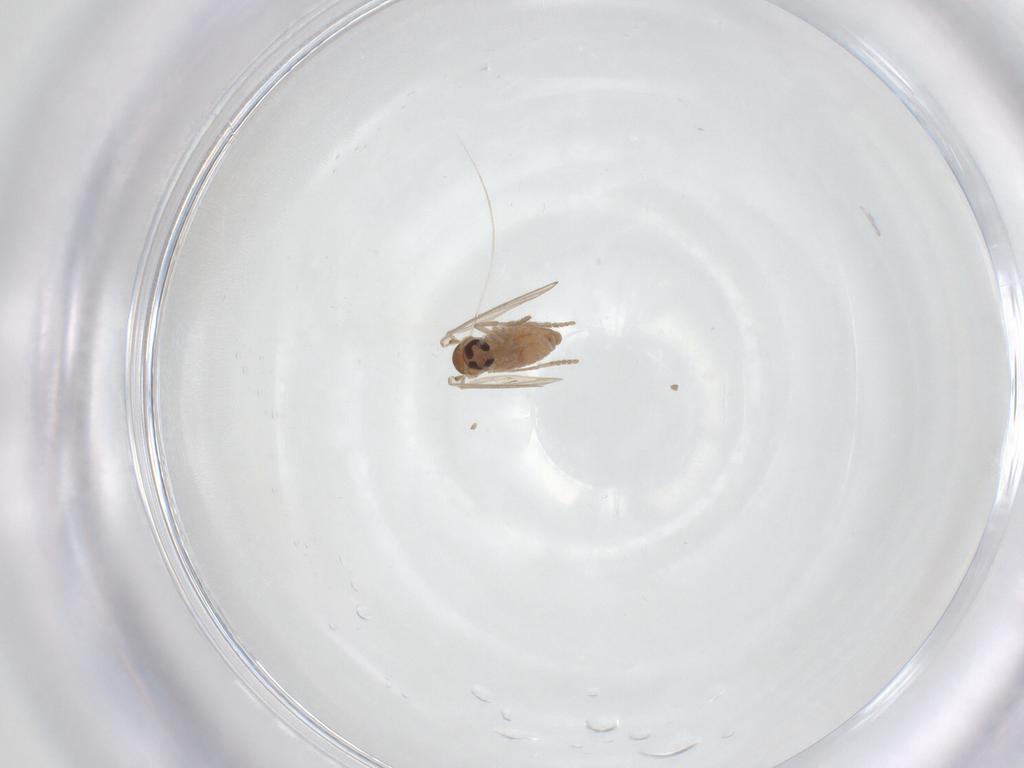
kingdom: Animalia
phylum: Arthropoda
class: Insecta
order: Diptera
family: Psychodidae
